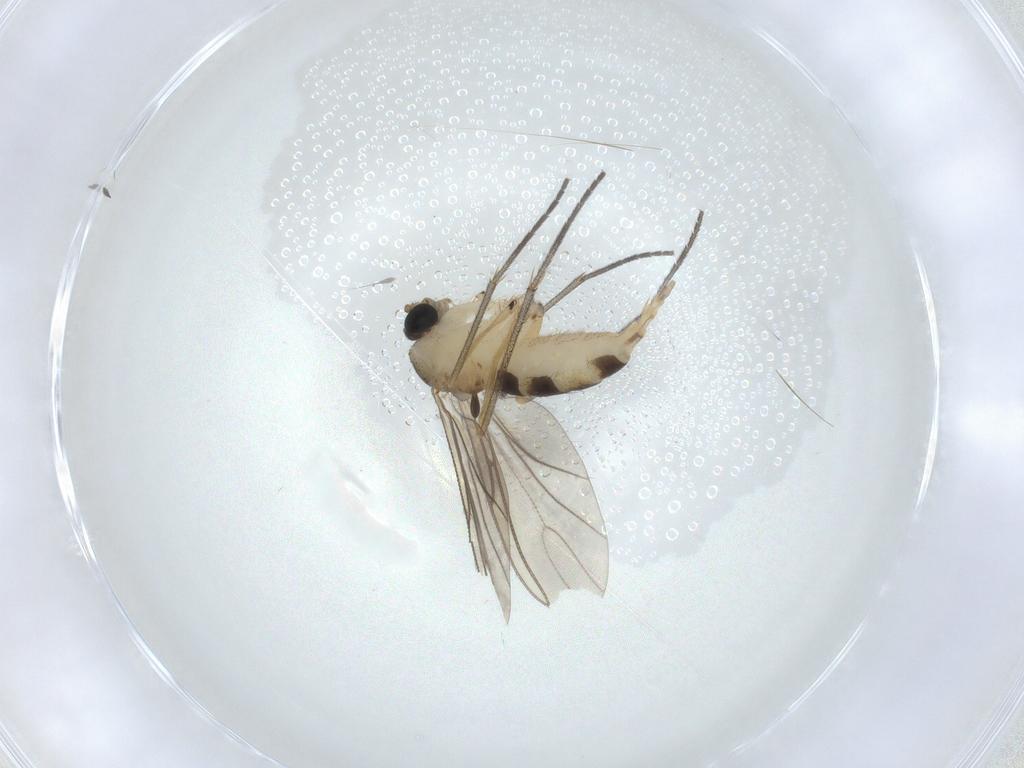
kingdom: Animalia
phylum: Arthropoda
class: Insecta
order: Diptera
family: Sciaridae
